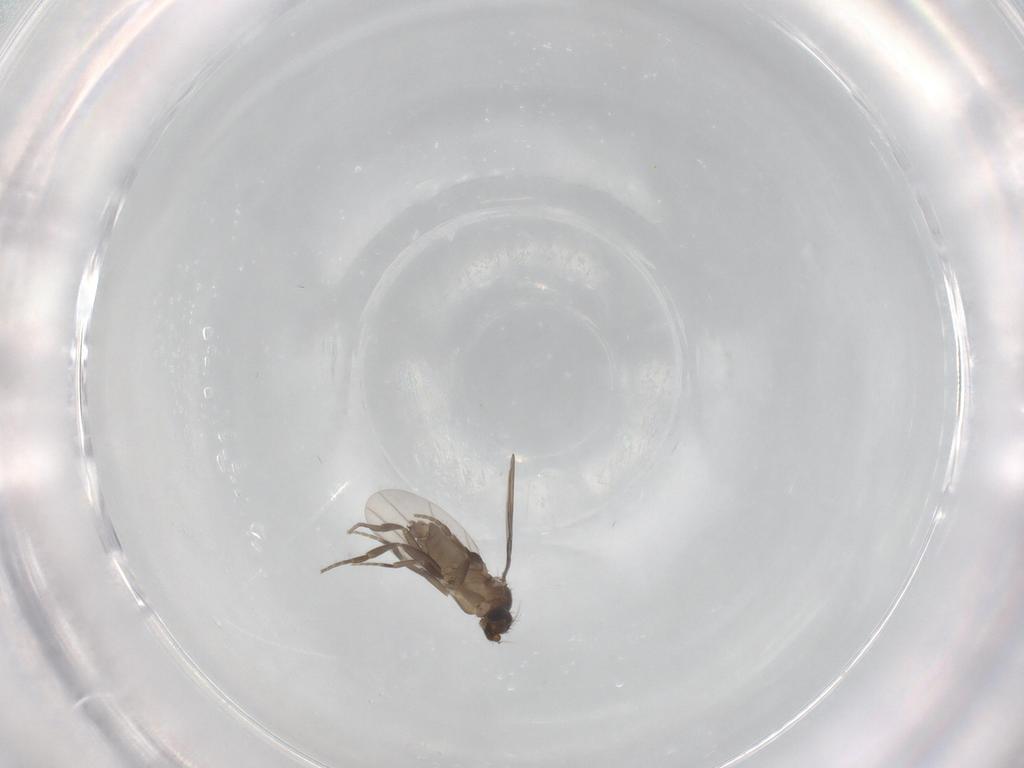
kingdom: Animalia
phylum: Arthropoda
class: Insecta
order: Diptera
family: Phoridae
